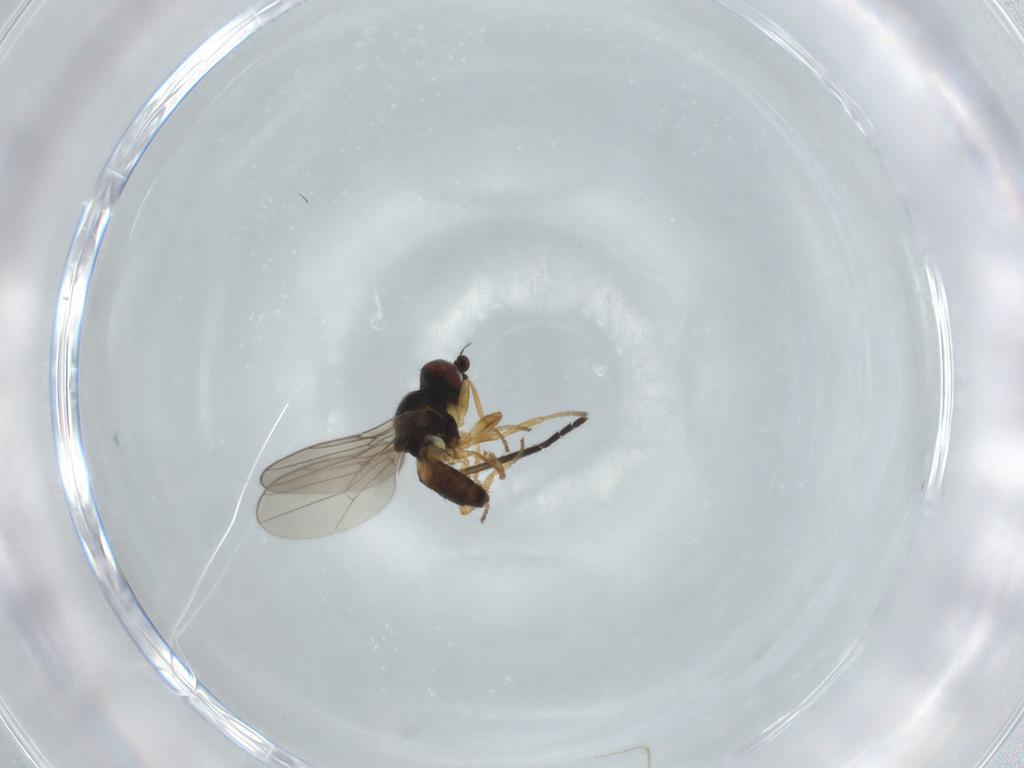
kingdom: Animalia
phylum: Arthropoda
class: Insecta
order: Diptera
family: Chloropidae
